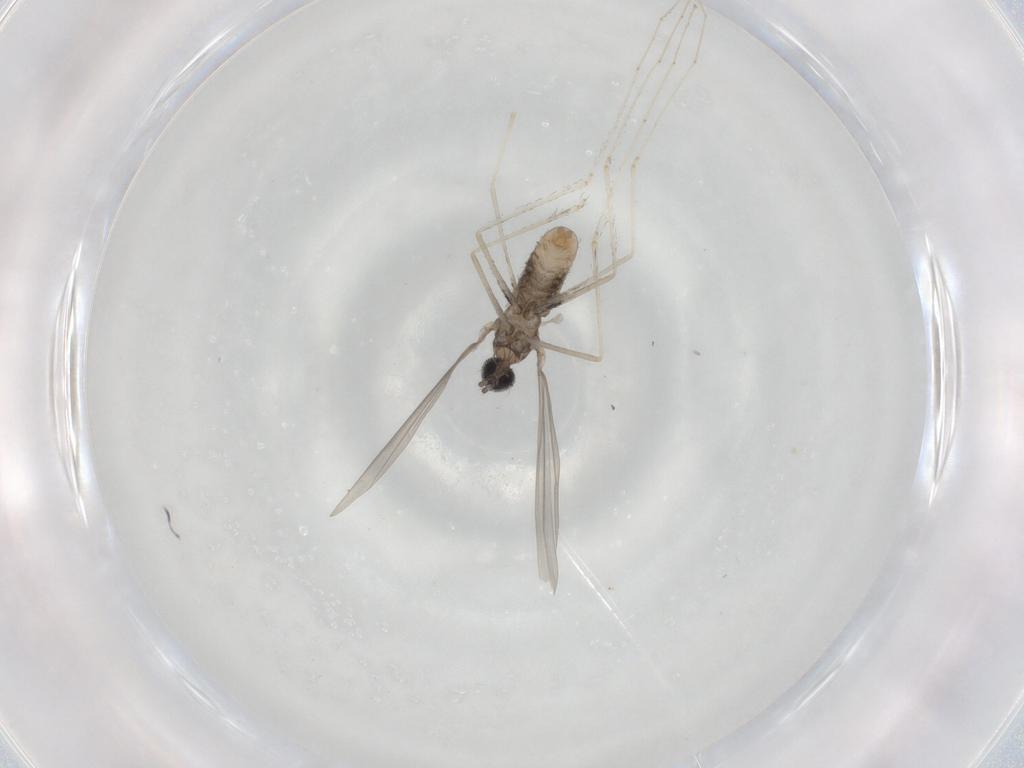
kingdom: Animalia
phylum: Arthropoda
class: Insecta
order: Diptera
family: Cecidomyiidae
